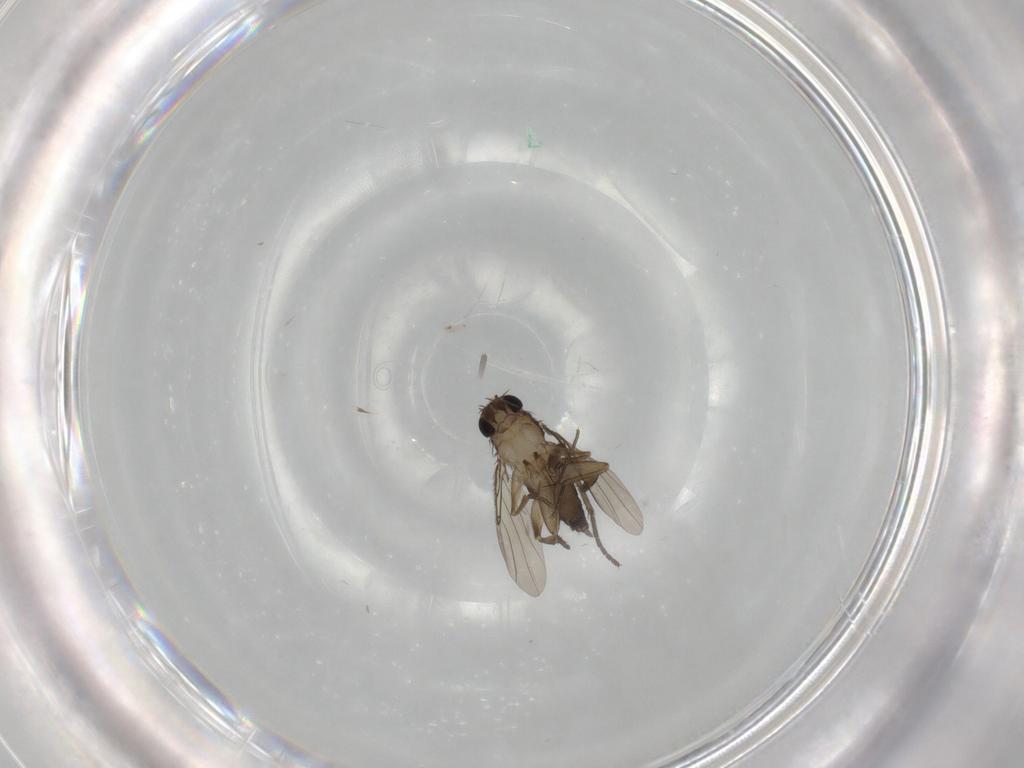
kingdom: Animalia
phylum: Arthropoda
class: Insecta
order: Diptera
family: Phoridae
